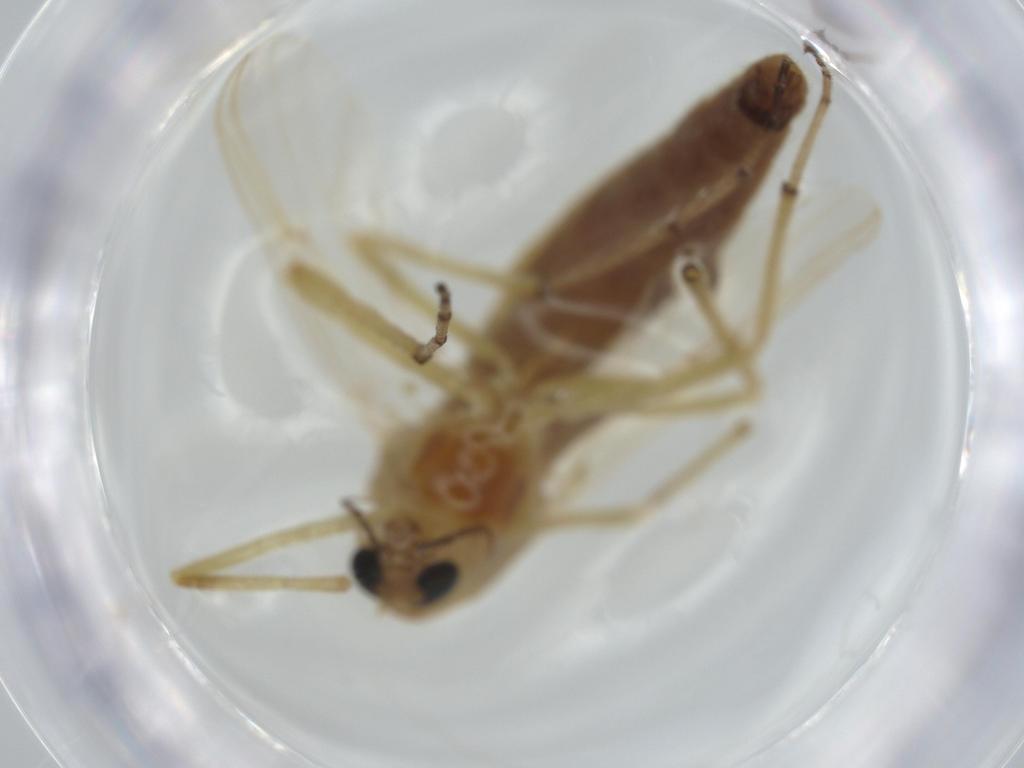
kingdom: Animalia
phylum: Arthropoda
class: Insecta
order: Diptera
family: Chironomidae
